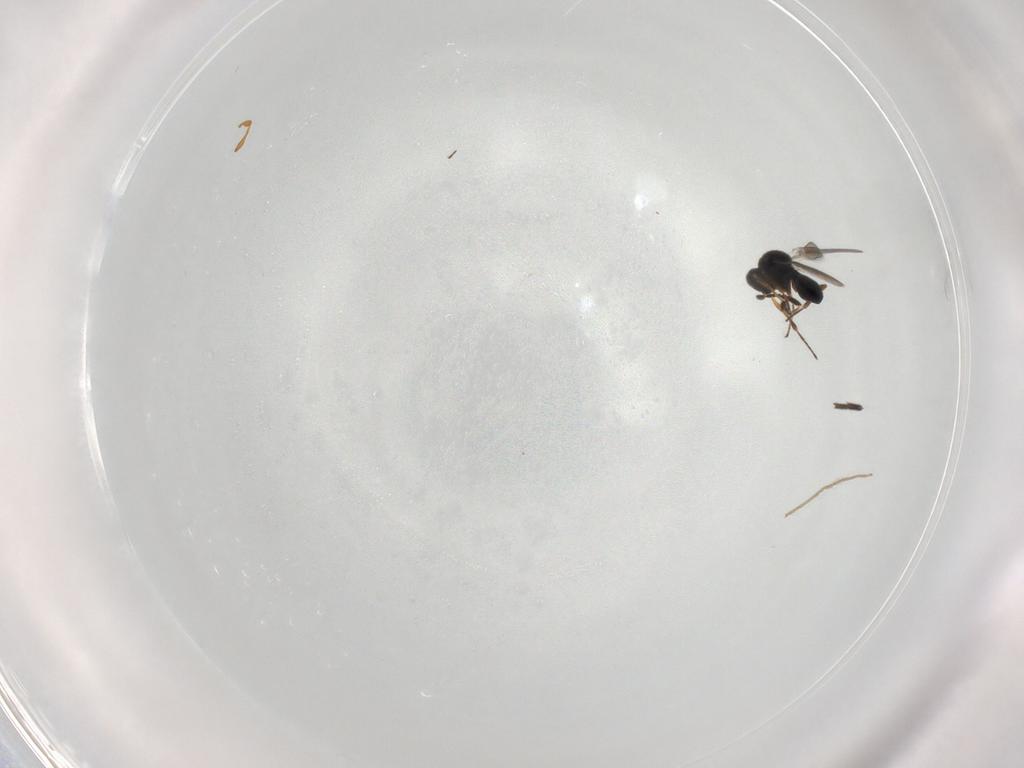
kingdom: Animalia
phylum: Arthropoda
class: Insecta
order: Hymenoptera
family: Platygastridae
